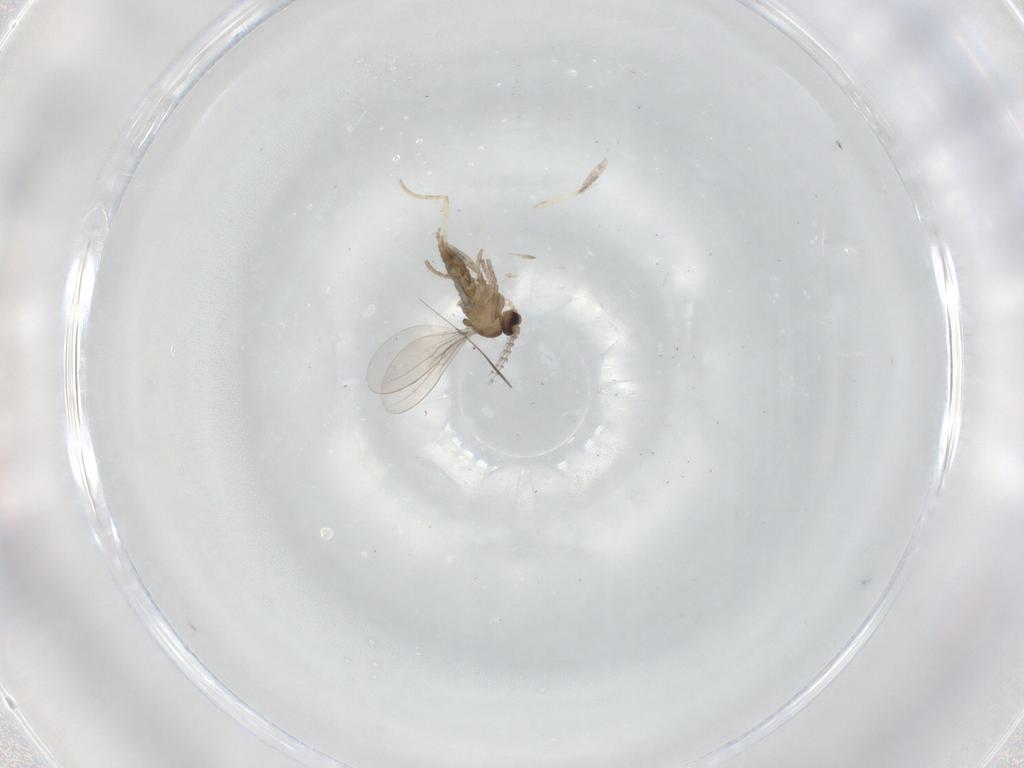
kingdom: Animalia
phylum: Arthropoda
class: Insecta
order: Diptera
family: Cecidomyiidae
